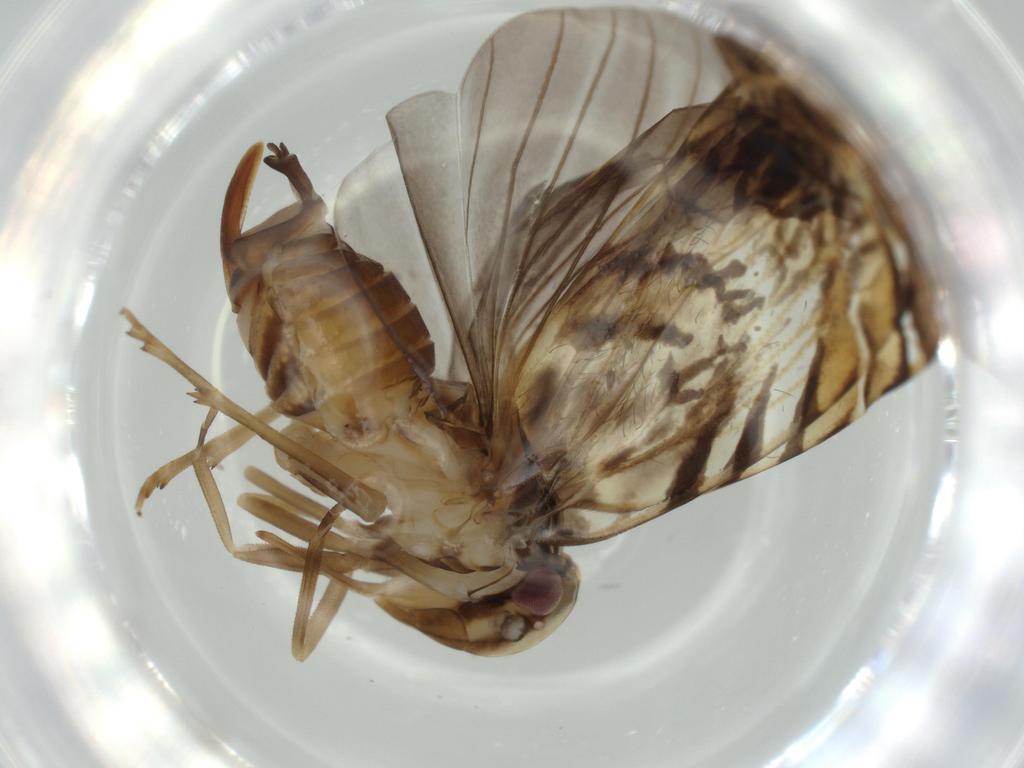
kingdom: Animalia
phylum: Arthropoda
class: Insecta
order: Hemiptera
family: Cixiidae
